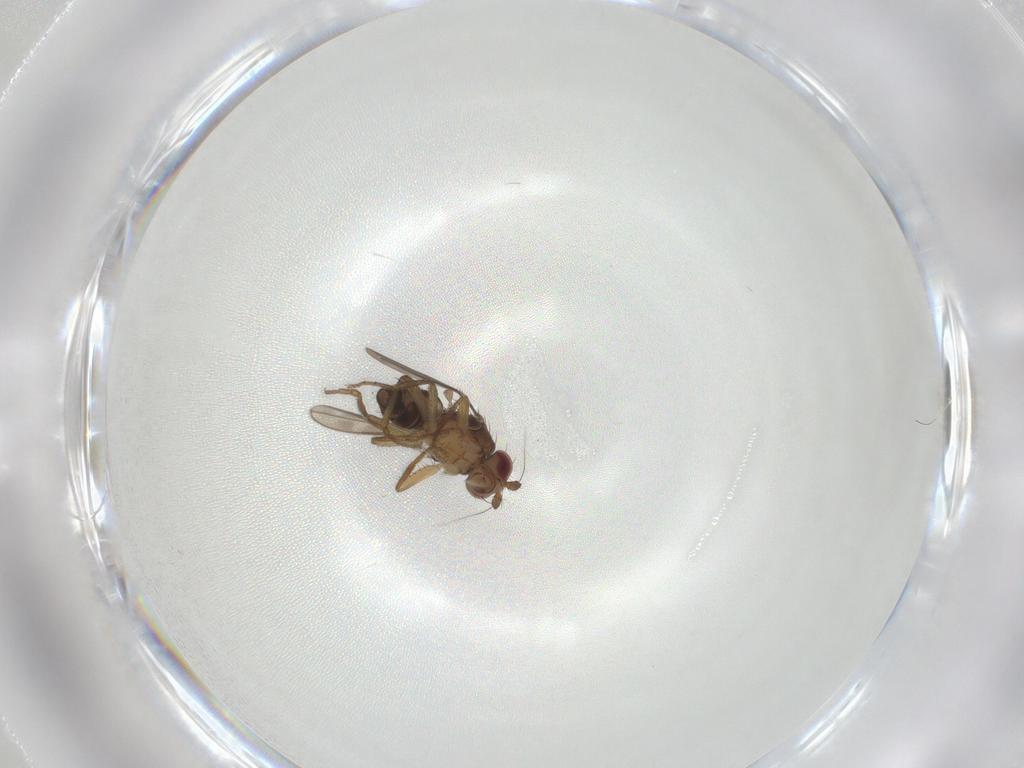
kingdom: Animalia
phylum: Arthropoda
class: Insecta
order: Diptera
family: Sphaeroceridae
